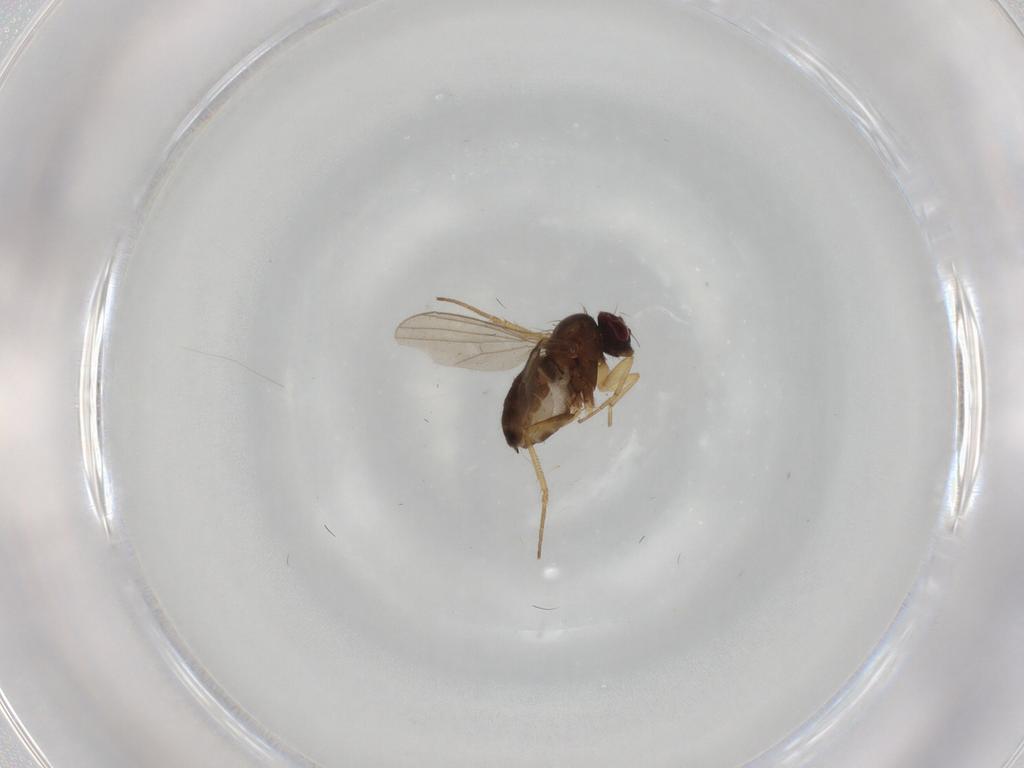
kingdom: Animalia
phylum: Arthropoda
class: Insecta
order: Diptera
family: Dolichopodidae
